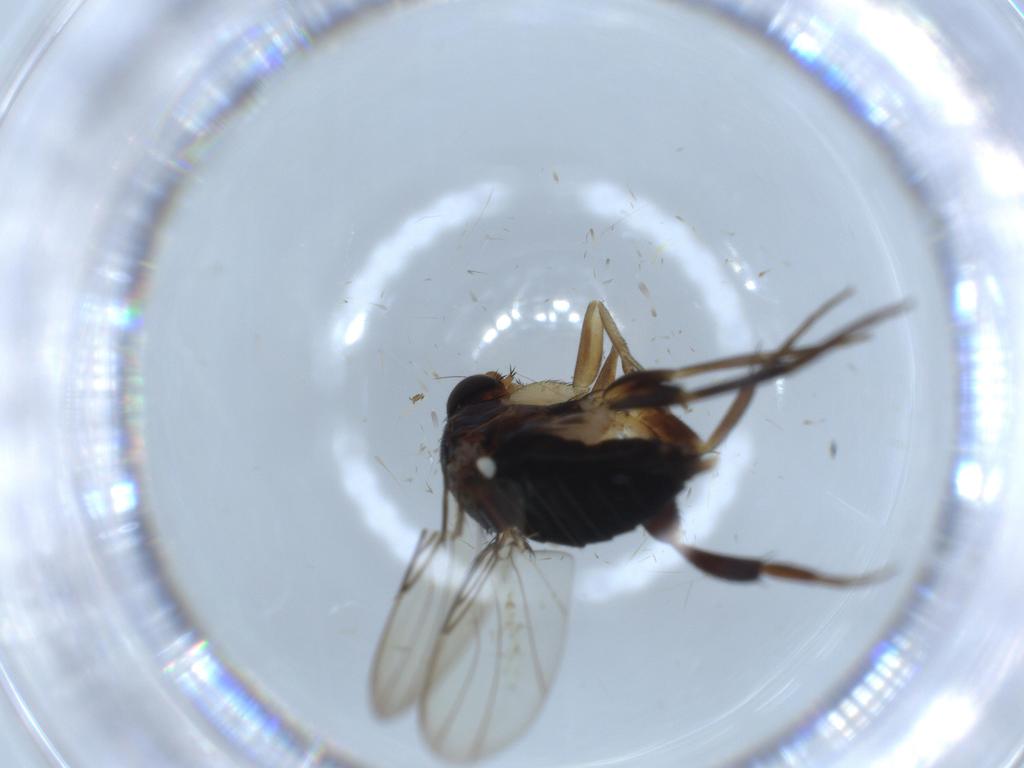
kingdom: Animalia
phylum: Arthropoda
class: Insecta
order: Diptera
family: Phoridae
